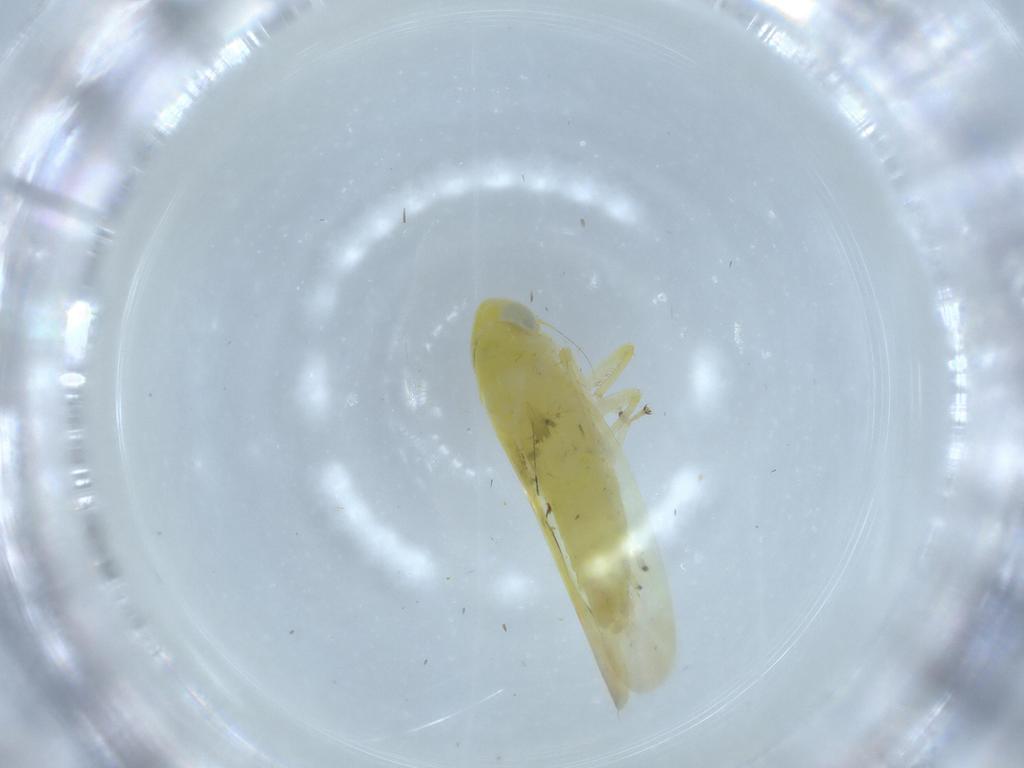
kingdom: Animalia
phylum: Arthropoda
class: Insecta
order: Hemiptera
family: Cicadellidae
